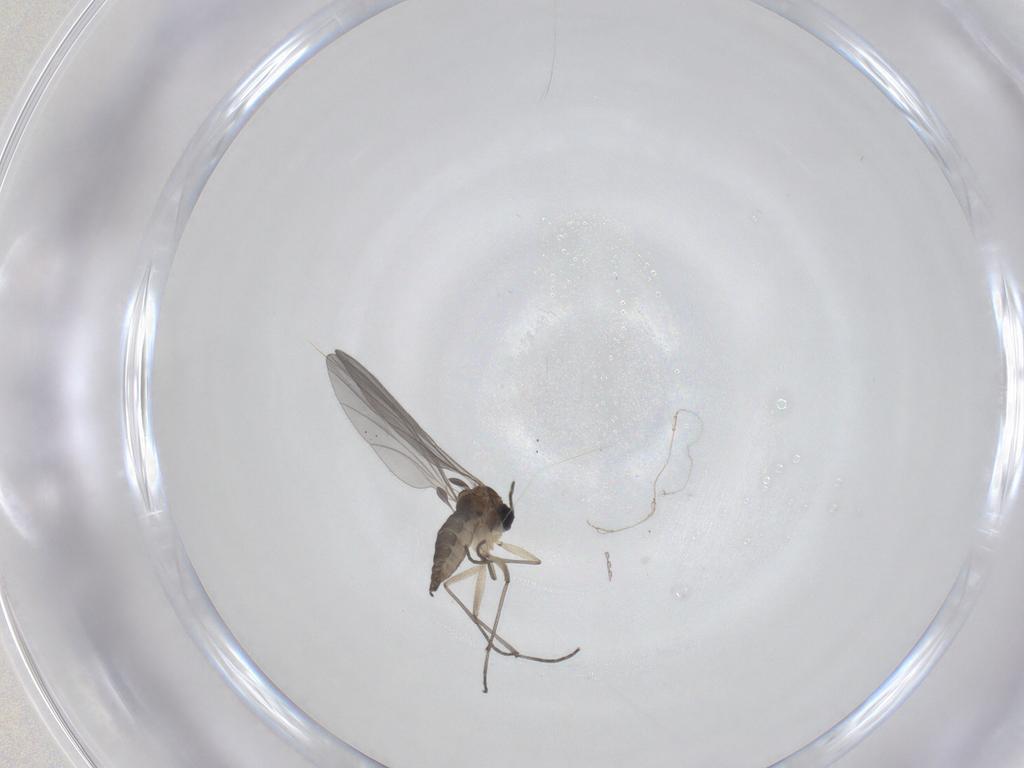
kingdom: Animalia
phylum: Arthropoda
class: Insecta
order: Diptera
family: Sciaridae
